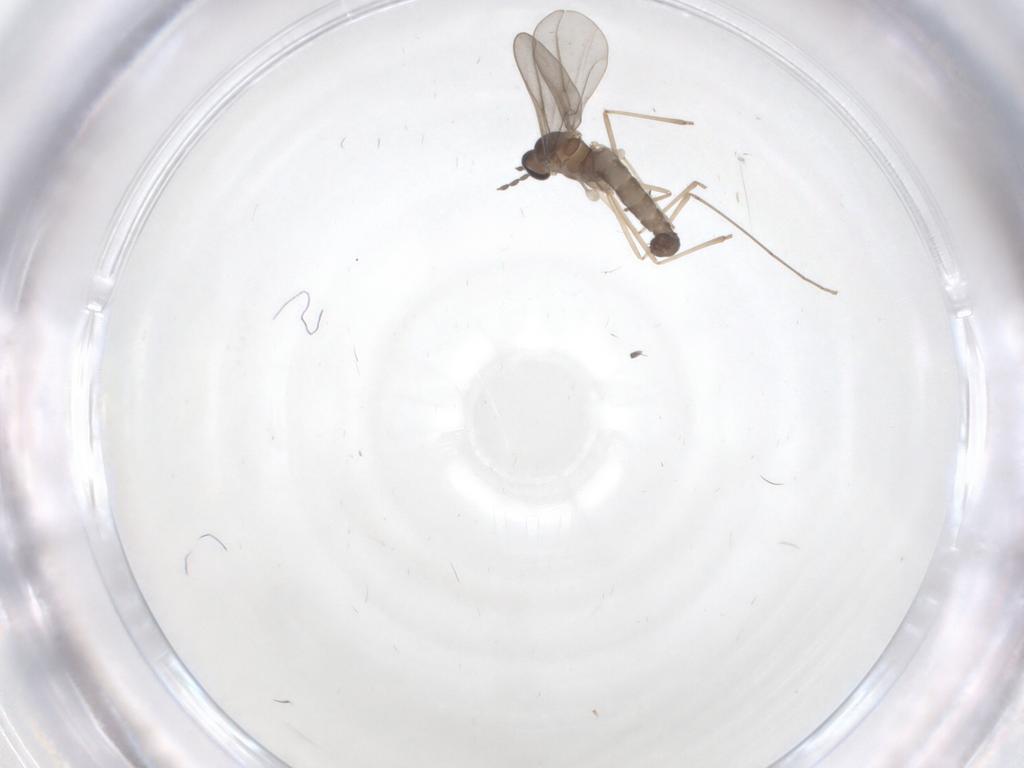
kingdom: Animalia
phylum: Arthropoda
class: Insecta
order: Diptera
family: Cecidomyiidae
